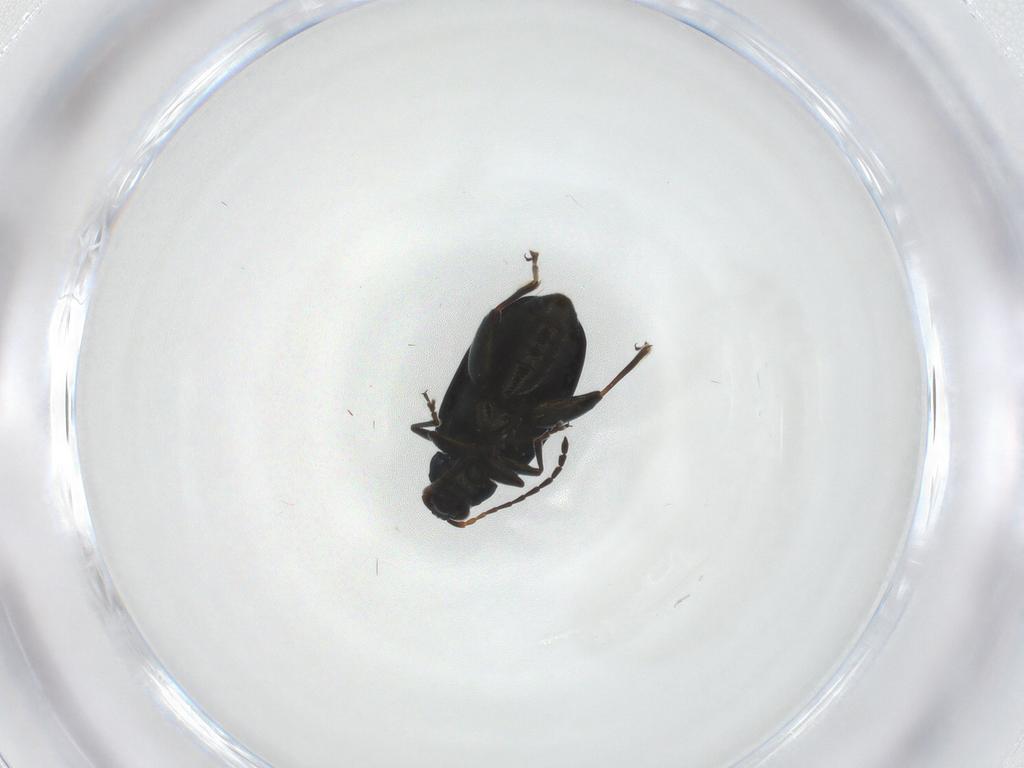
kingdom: Animalia
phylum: Arthropoda
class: Insecta
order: Coleoptera
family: Chrysomelidae
